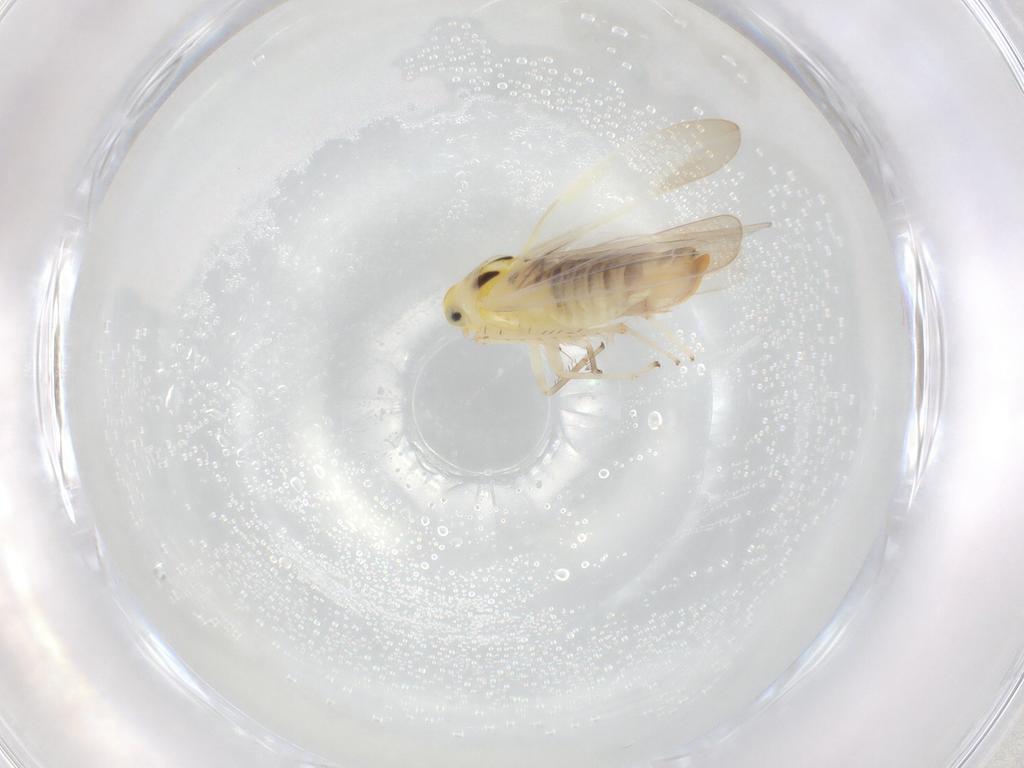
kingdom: Animalia
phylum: Arthropoda
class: Insecta
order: Hemiptera
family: Cicadellidae
